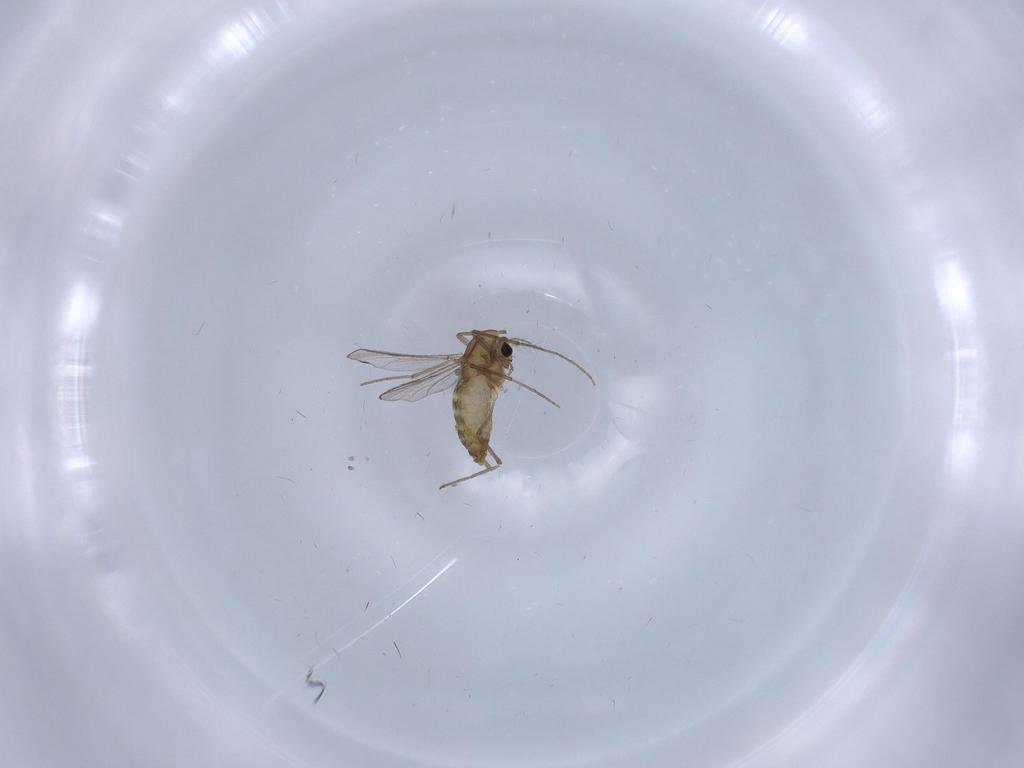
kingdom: Animalia
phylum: Arthropoda
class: Insecta
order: Diptera
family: Chironomidae
